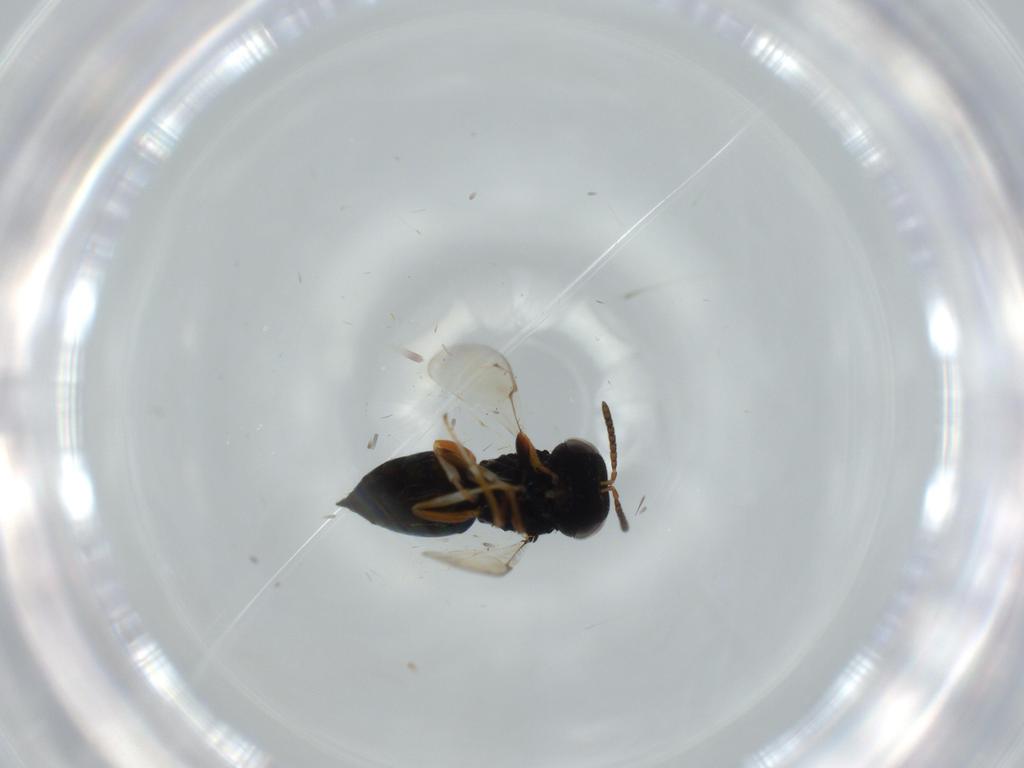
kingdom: Animalia
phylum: Arthropoda
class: Insecta
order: Hymenoptera
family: Pteromalidae
